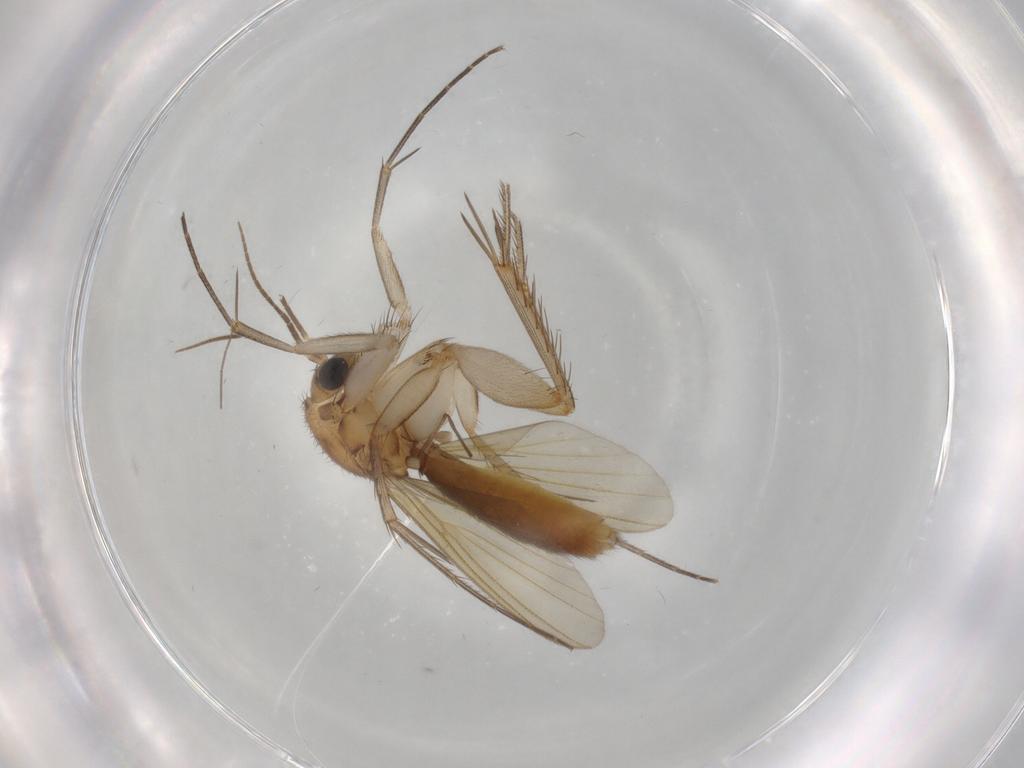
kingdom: Animalia
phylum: Arthropoda
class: Insecta
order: Diptera
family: Mycetophilidae
